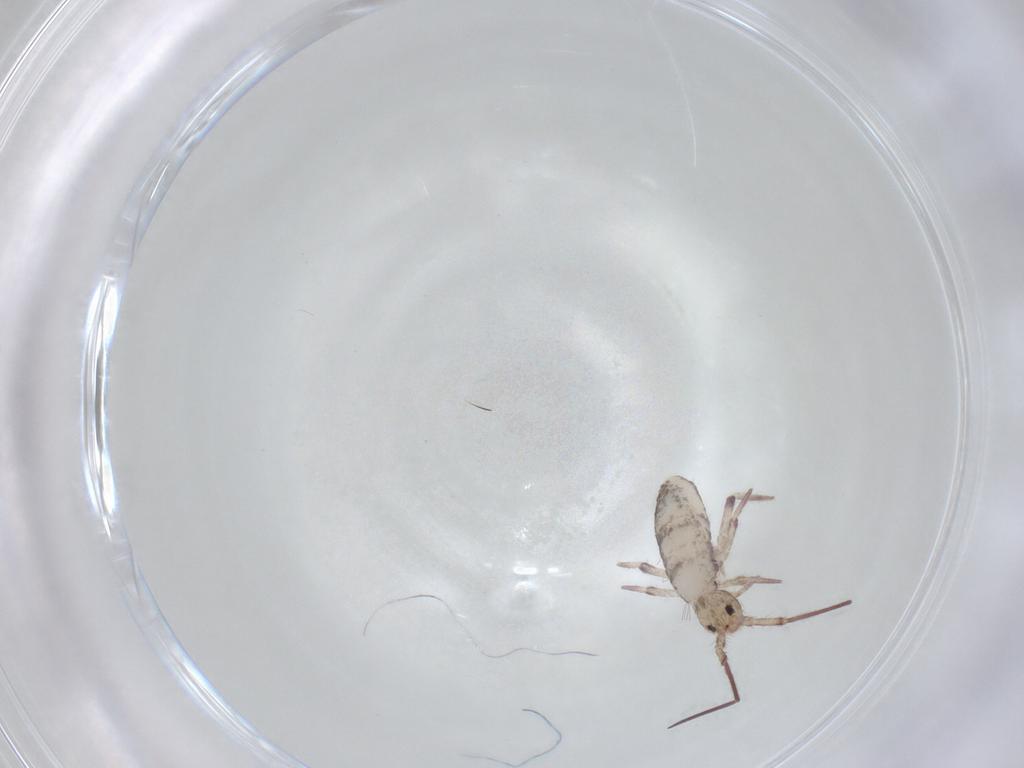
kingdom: Animalia
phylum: Arthropoda
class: Collembola
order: Entomobryomorpha
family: Entomobryidae
